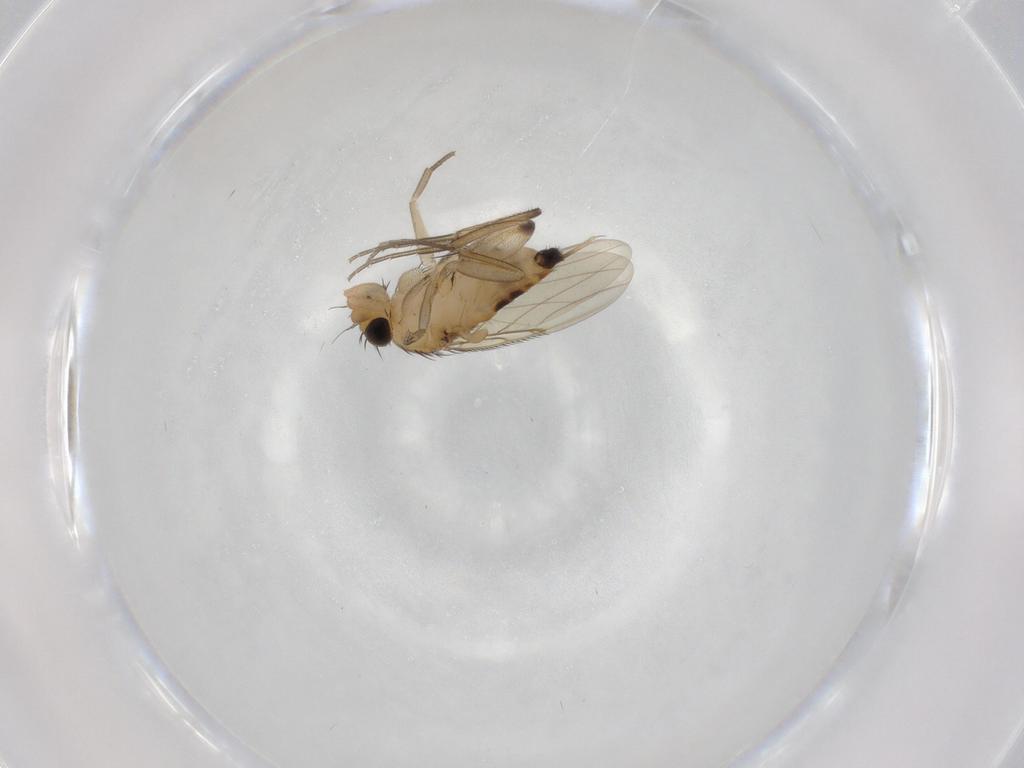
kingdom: Animalia
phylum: Arthropoda
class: Insecta
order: Diptera
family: Phoridae
